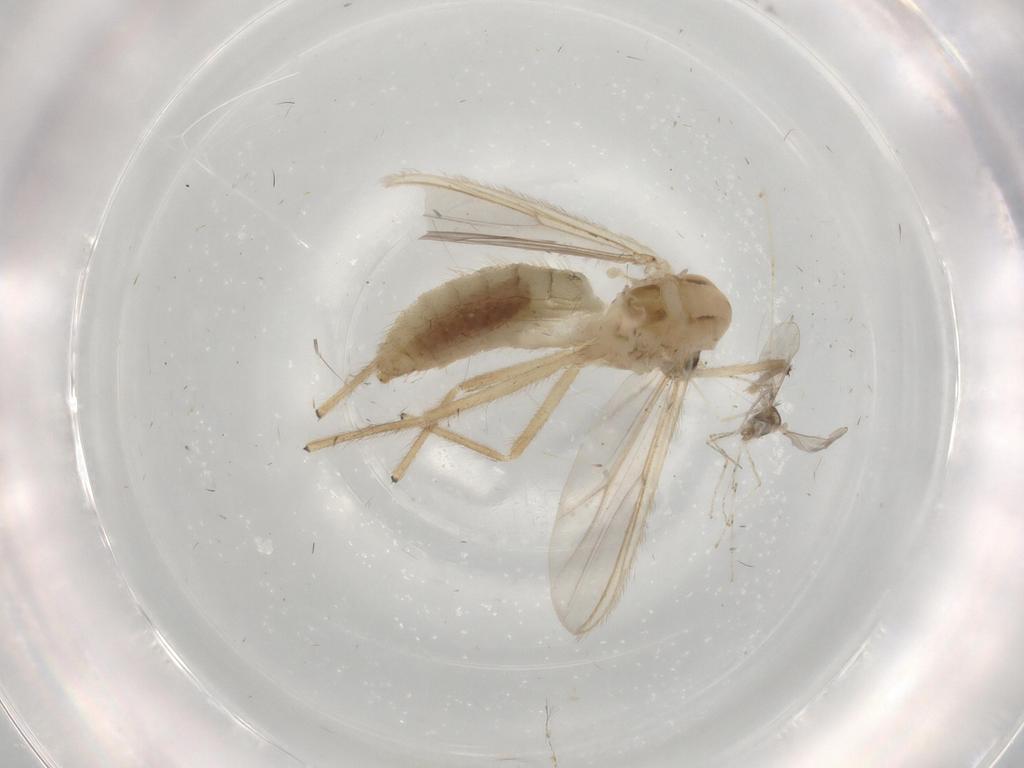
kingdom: Animalia
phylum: Arthropoda
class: Insecta
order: Diptera
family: Chironomidae
